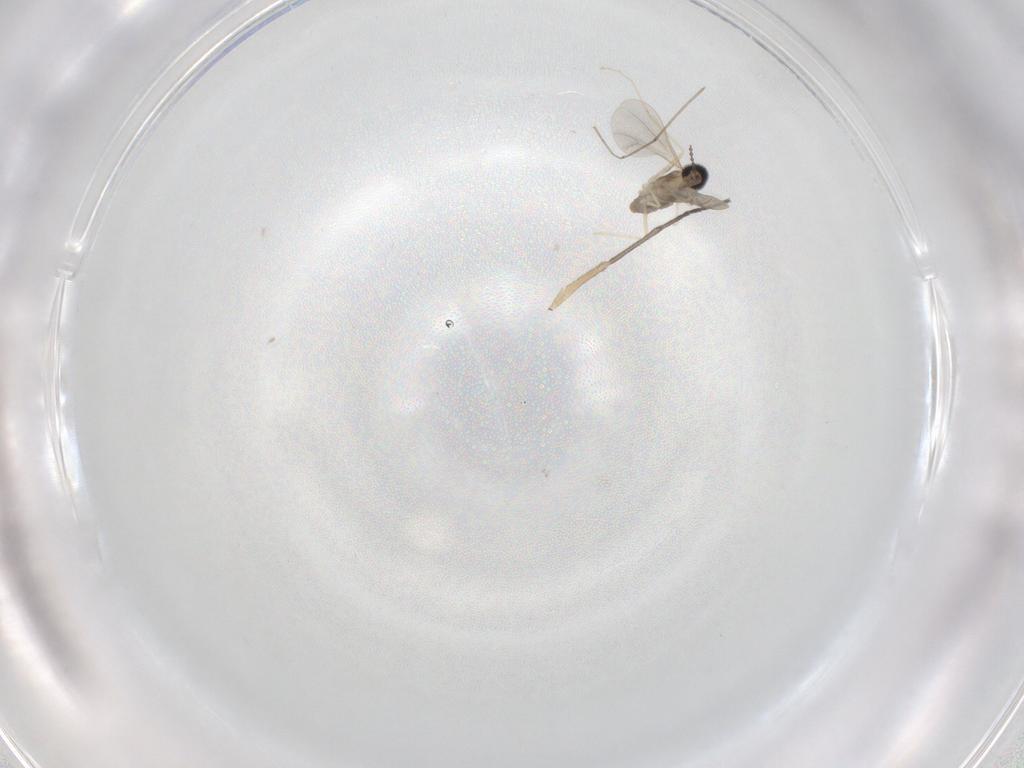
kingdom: Animalia
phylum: Arthropoda
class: Insecta
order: Diptera
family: Cecidomyiidae
